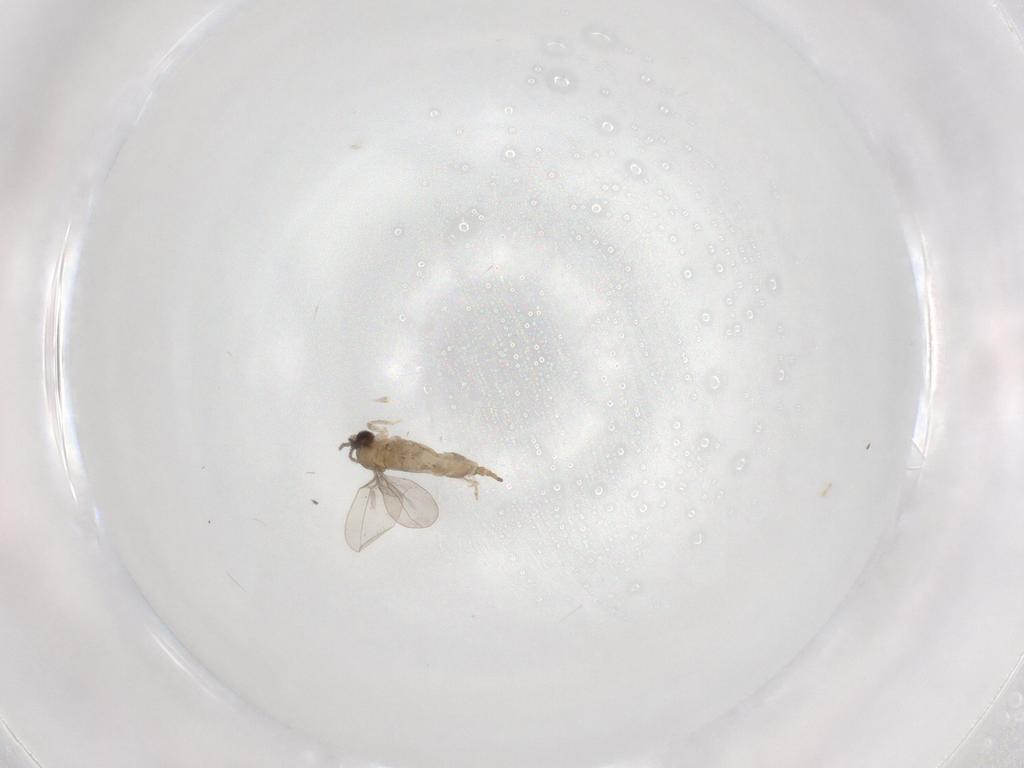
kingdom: Animalia
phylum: Arthropoda
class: Insecta
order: Diptera
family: Cecidomyiidae
